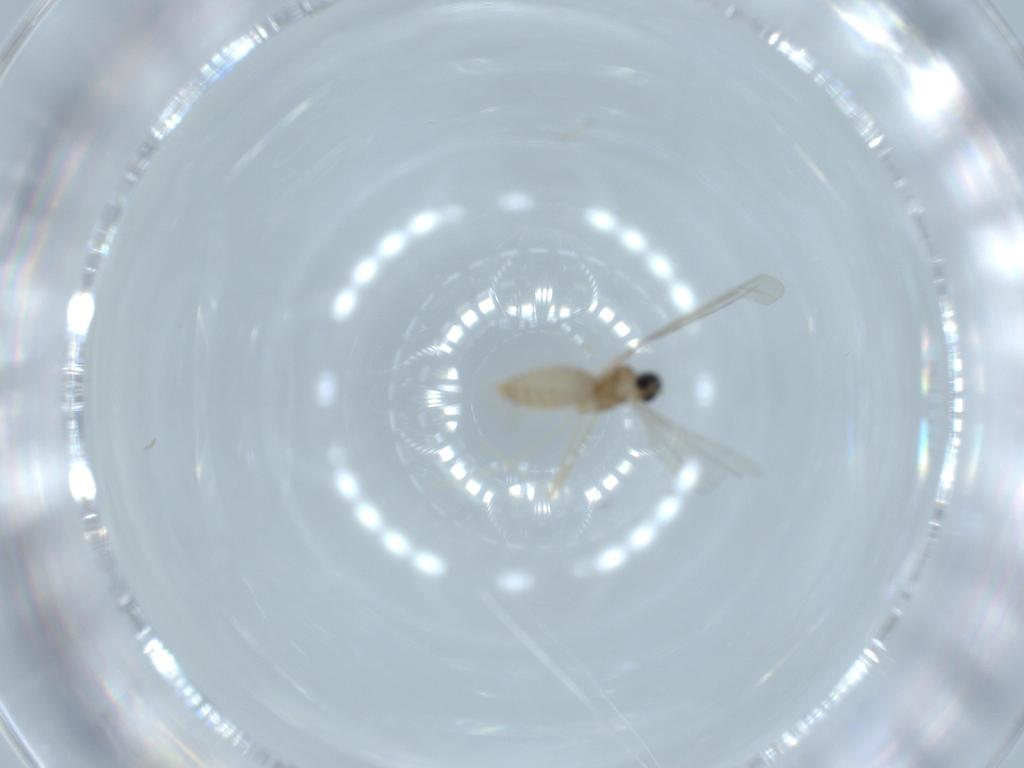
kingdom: Animalia
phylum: Arthropoda
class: Insecta
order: Diptera
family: Cecidomyiidae
